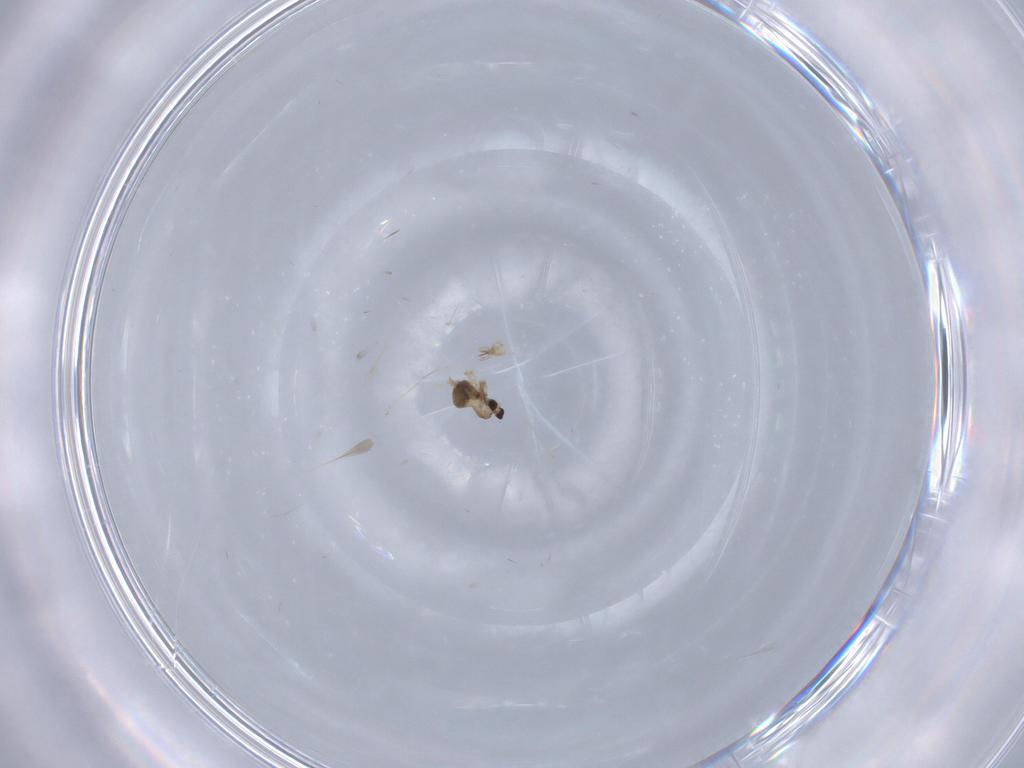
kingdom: Animalia
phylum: Arthropoda
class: Insecta
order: Diptera
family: Cecidomyiidae
